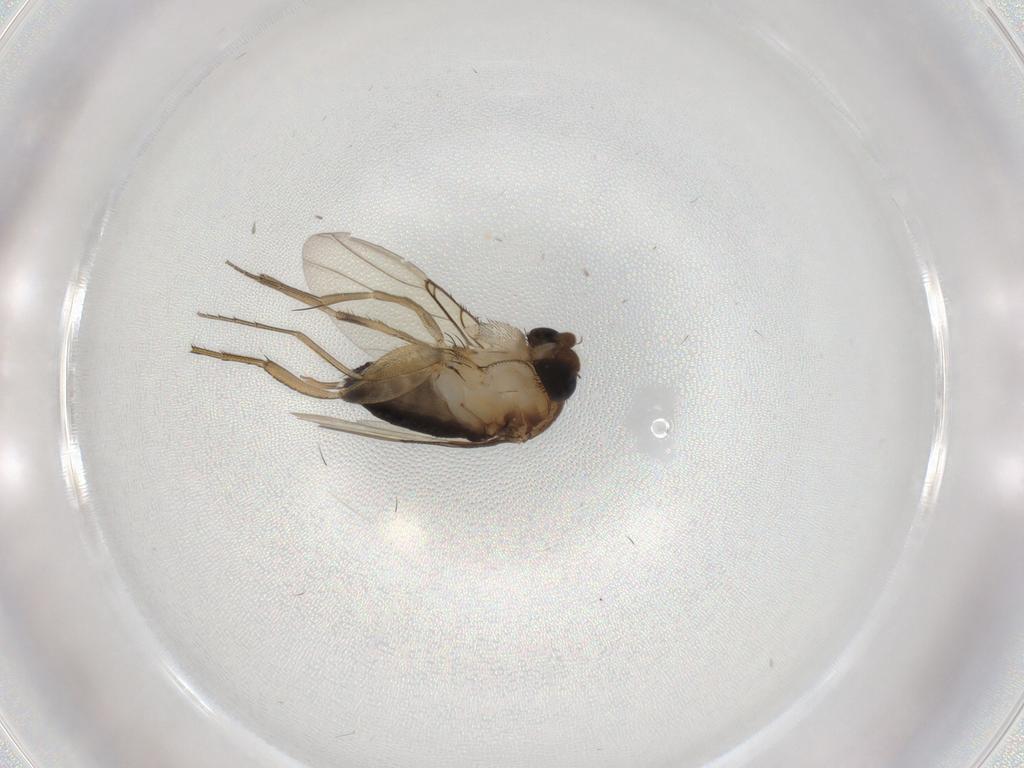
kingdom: Animalia
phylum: Arthropoda
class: Insecta
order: Diptera
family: Phoridae
